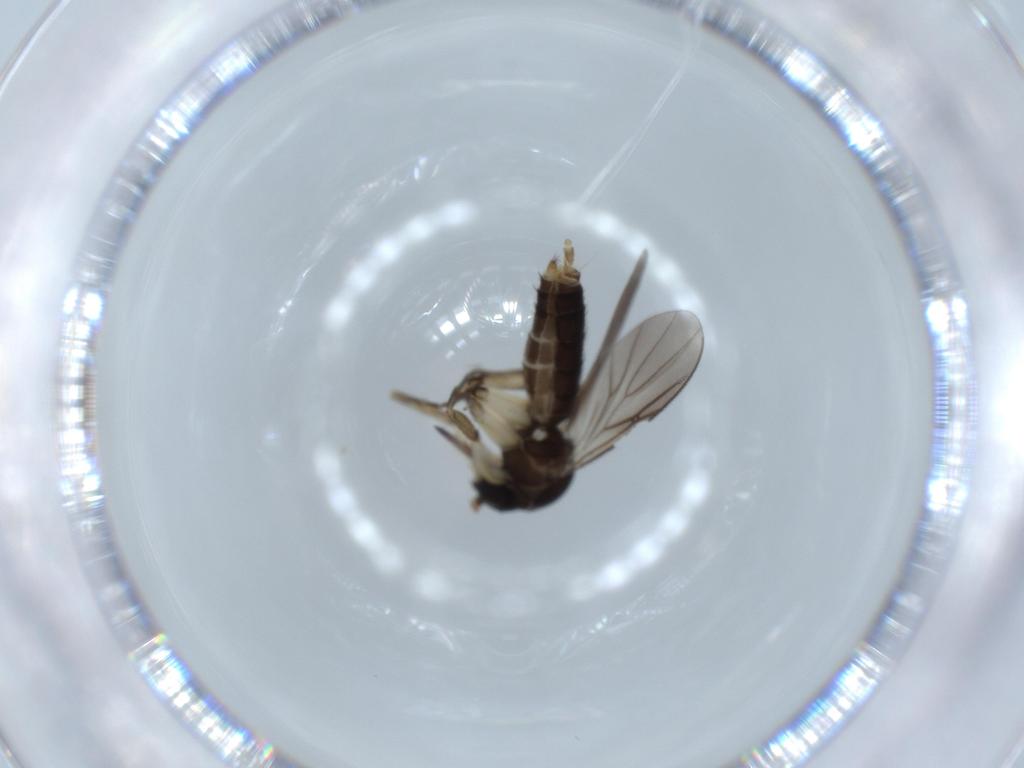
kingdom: Animalia
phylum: Arthropoda
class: Insecta
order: Diptera
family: Mycetophilidae
